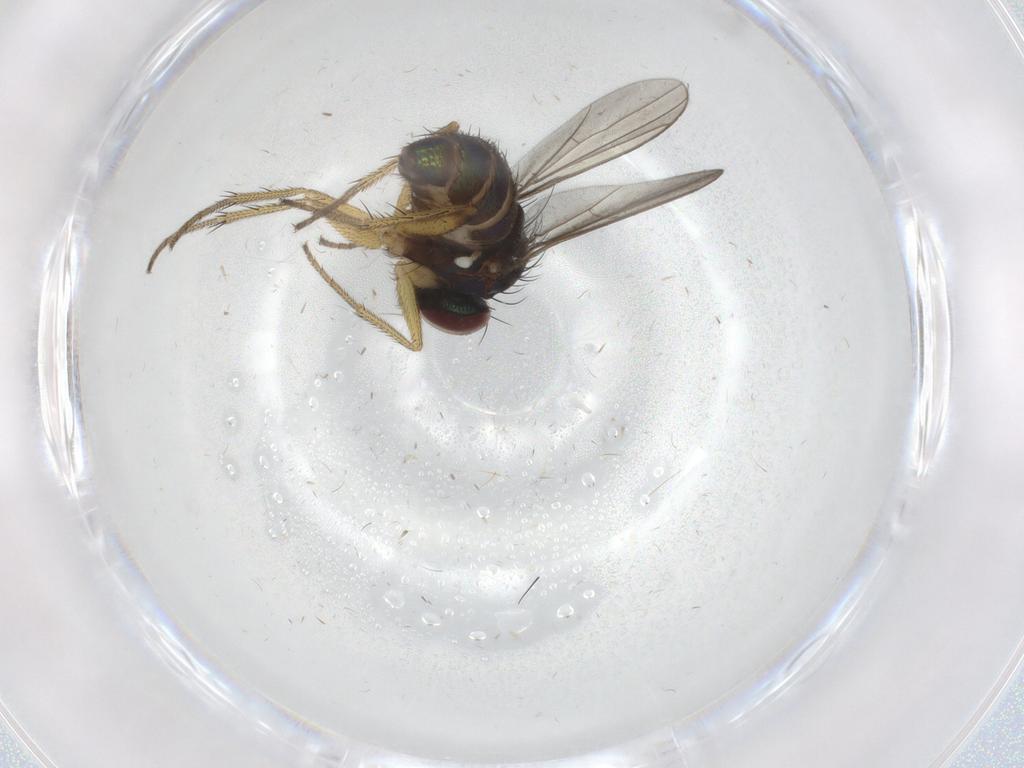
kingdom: Animalia
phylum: Arthropoda
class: Insecta
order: Diptera
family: Dolichopodidae
